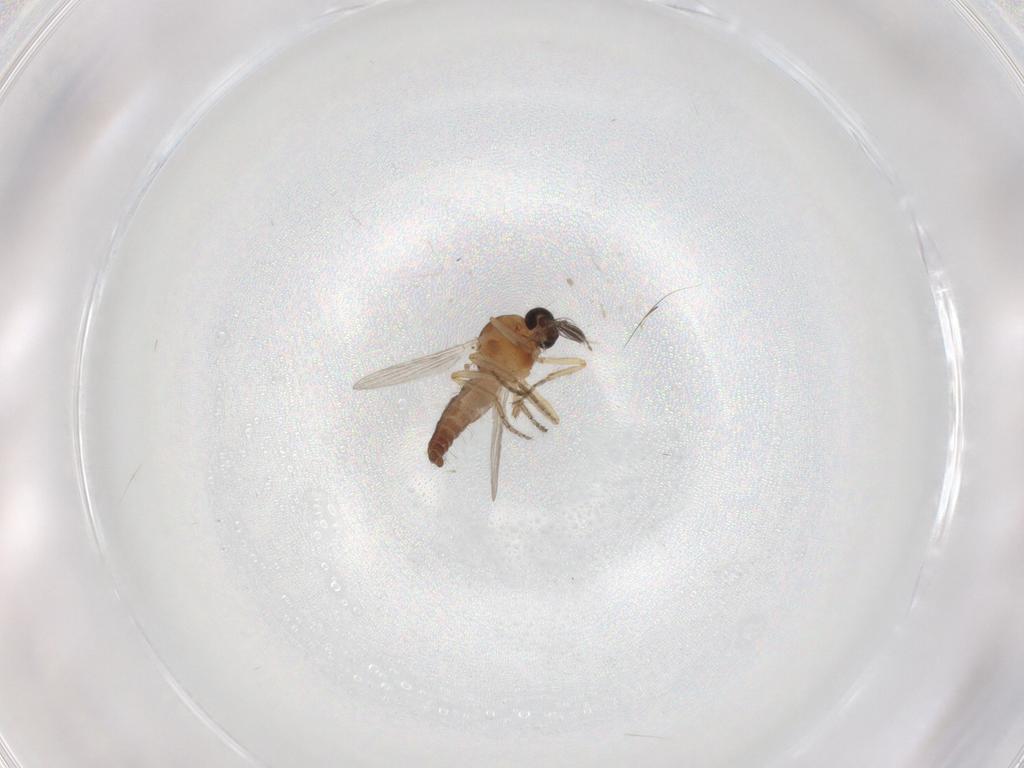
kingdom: Animalia
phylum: Arthropoda
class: Insecta
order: Diptera
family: Ceratopogonidae
